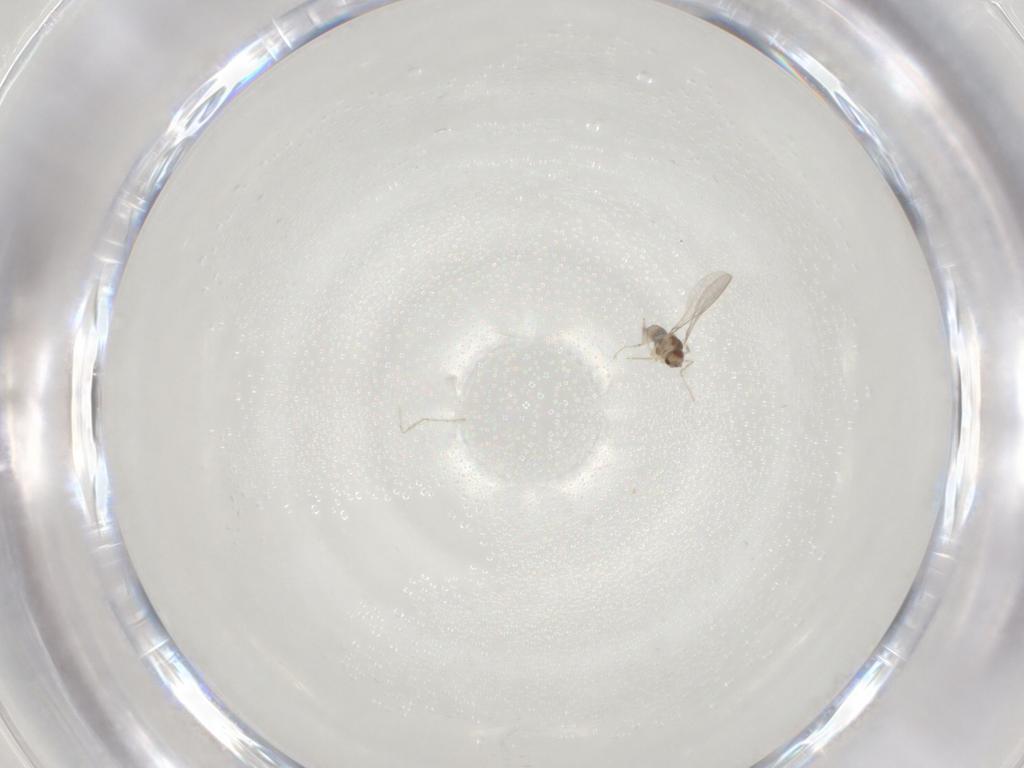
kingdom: Animalia
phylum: Arthropoda
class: Insecta
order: Diptera
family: Cecidomyiidae
